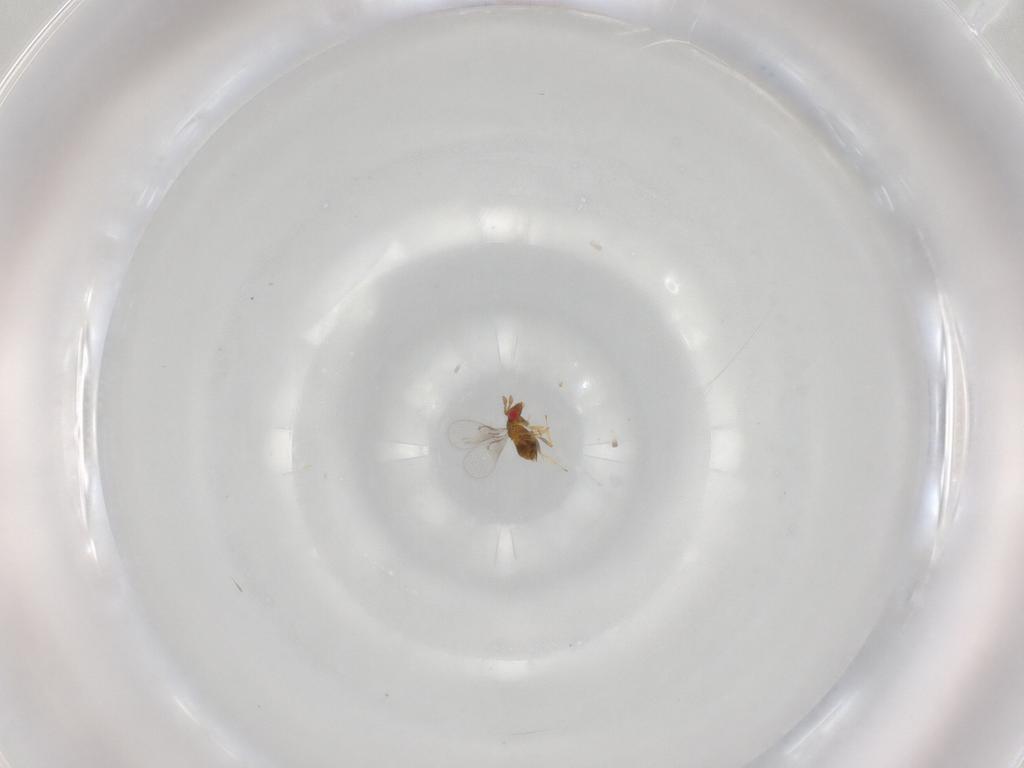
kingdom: Animalia
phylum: Arthropoda
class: Insecta
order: Hymenoptera
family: Trichogrammatidae
